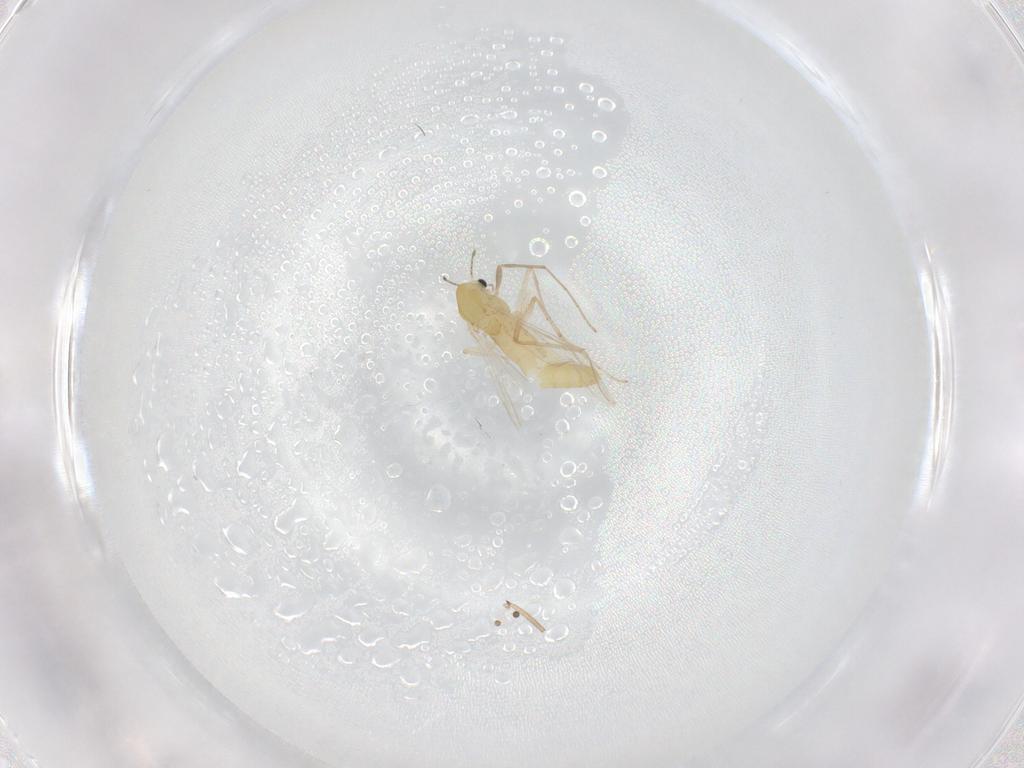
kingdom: Animalia
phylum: Arthropoda
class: Insecta
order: Diptera
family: Chironomidae
